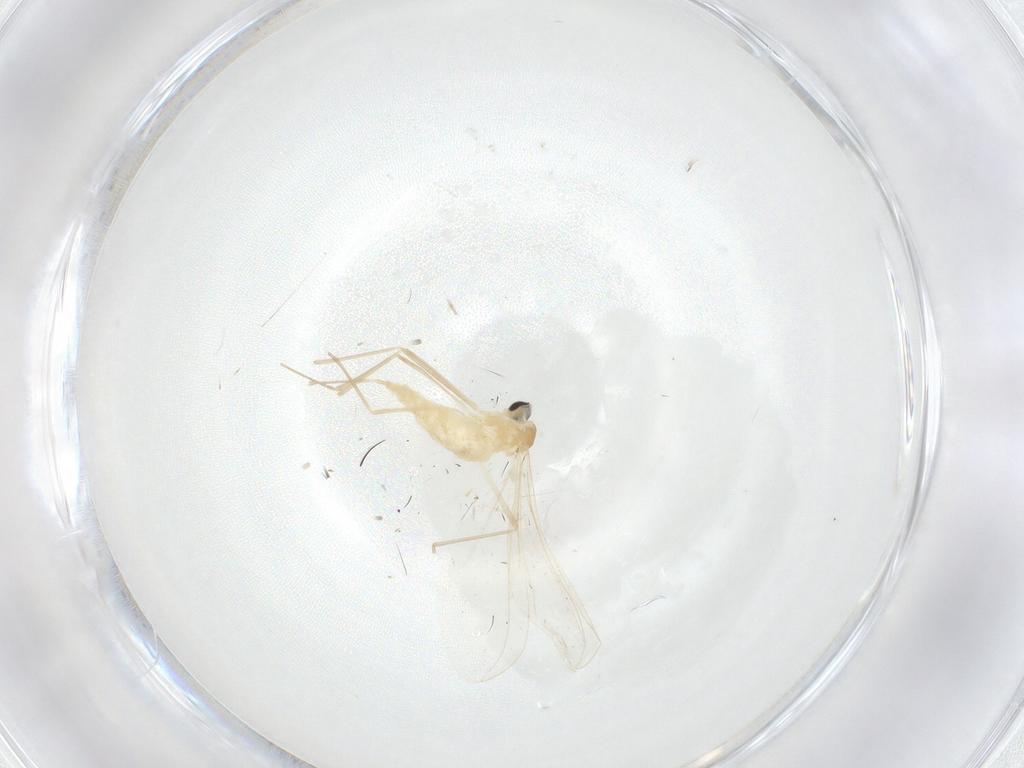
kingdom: Animalia
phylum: Arthropoda
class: Insecta
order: Diptera
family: Cecidomyiidae
